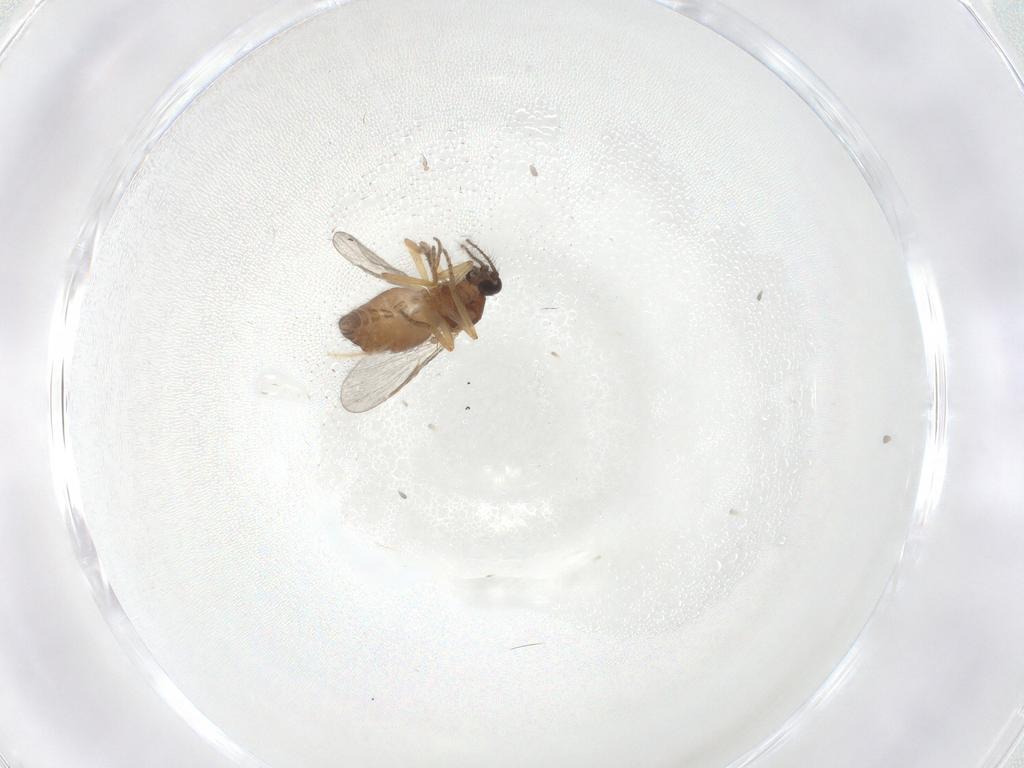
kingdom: Animalia
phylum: Arthropoda
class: Insecta
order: Diptera
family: Ceratopogonidae
